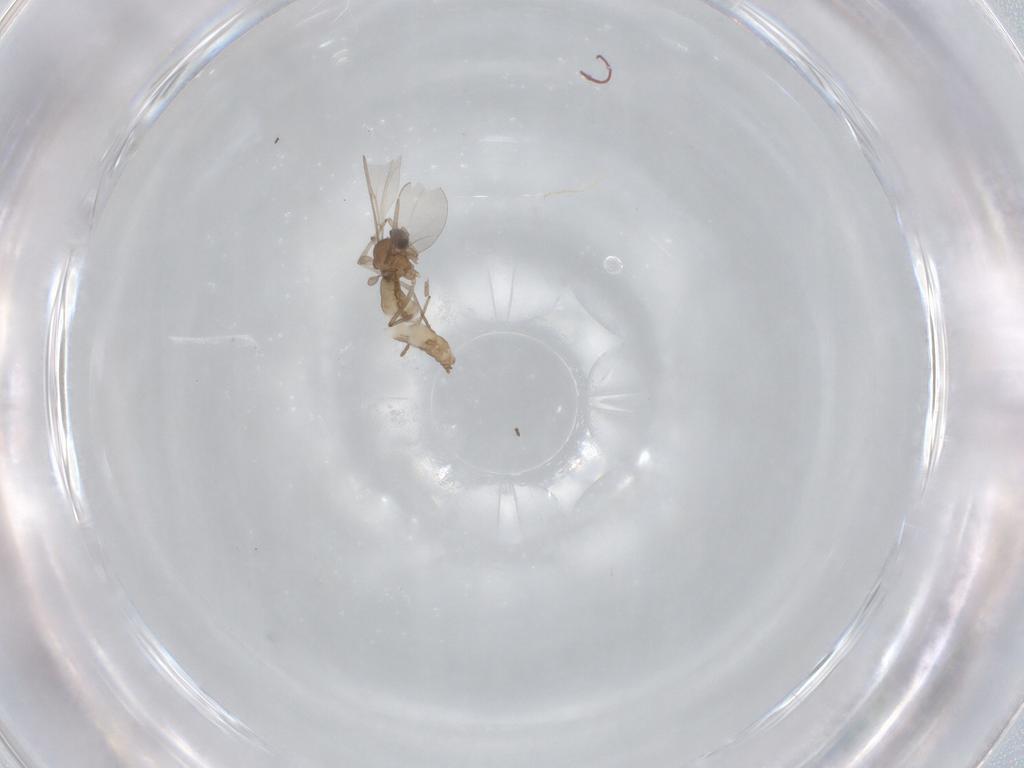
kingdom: Animalia
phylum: Arthropoda
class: Insecta
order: Diptera
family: Cecidomyiidae
